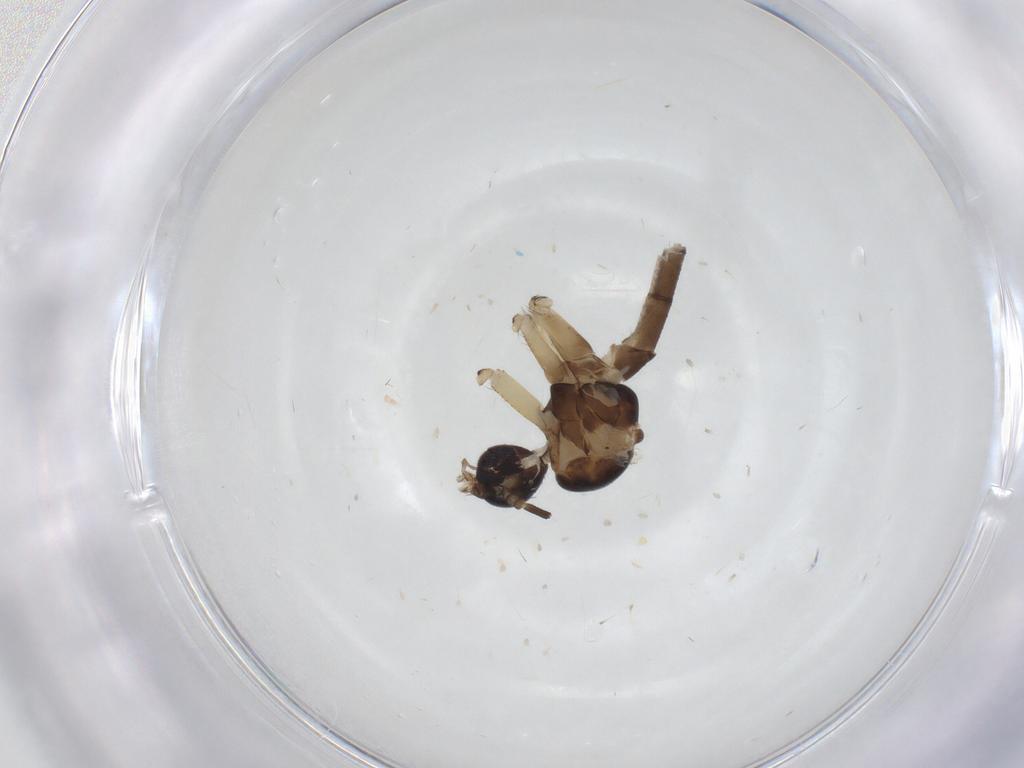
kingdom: Animalia
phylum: Arthropoda
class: Insecta
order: Diptera
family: Mycetophilidae
